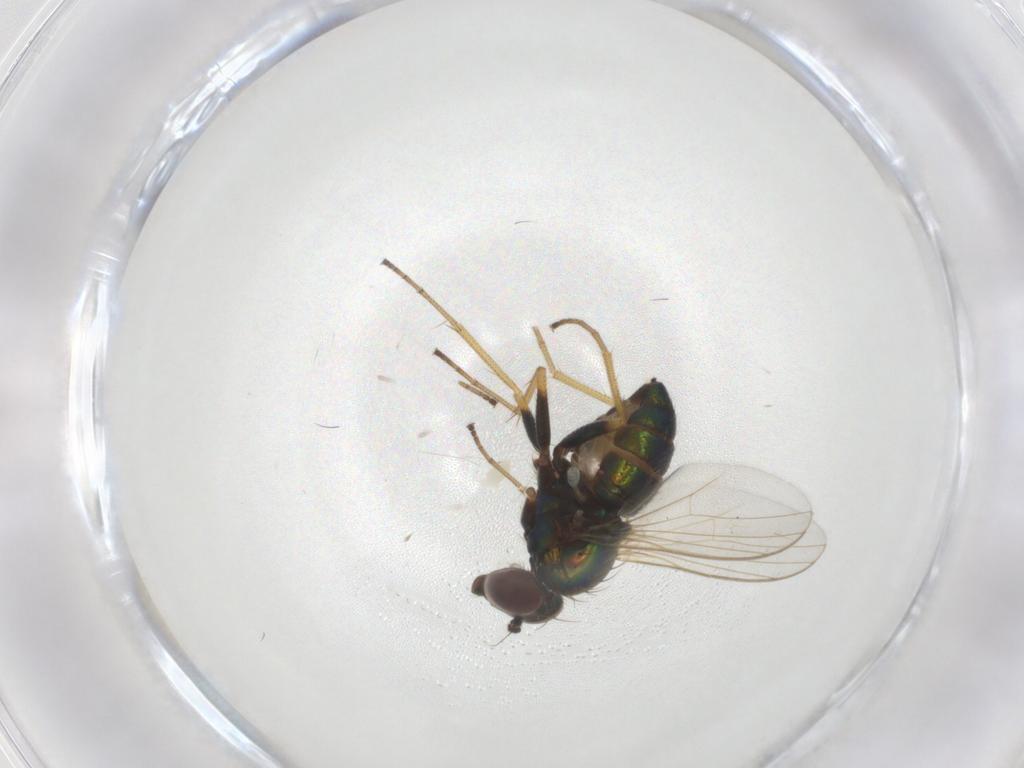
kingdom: Animalia
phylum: Arthropoda
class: Insecta
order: Diptera
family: Dolichopodidae
